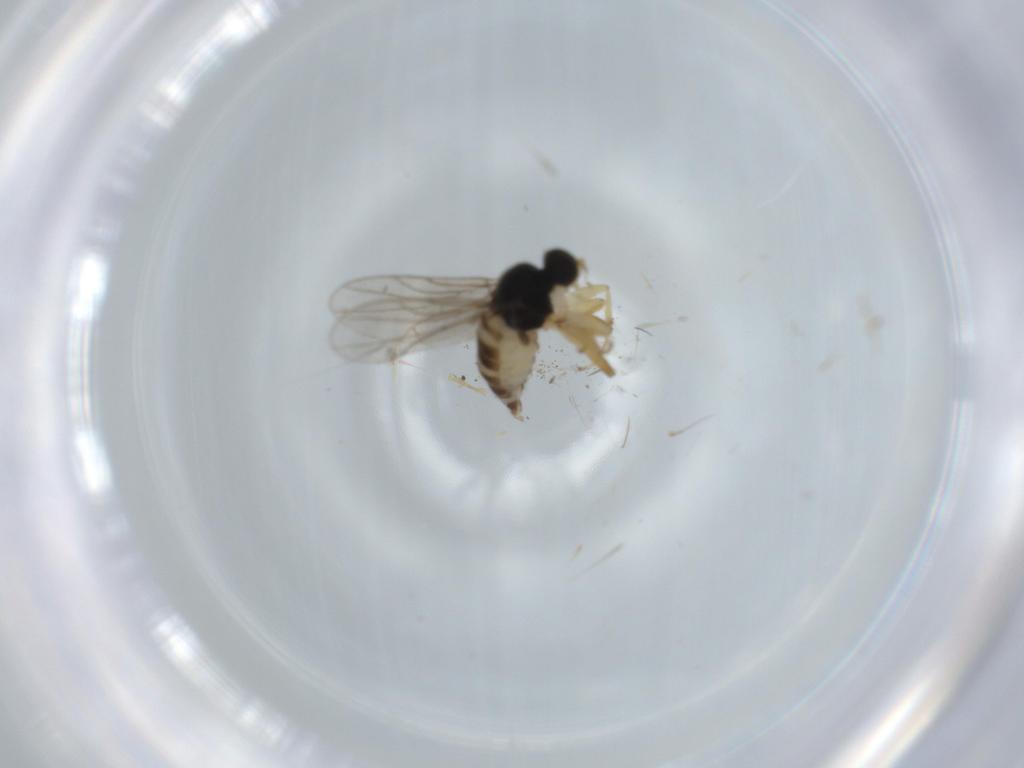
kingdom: Animalia
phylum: Arthropoda
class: Insecta
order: Diptera
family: Hybotidae
